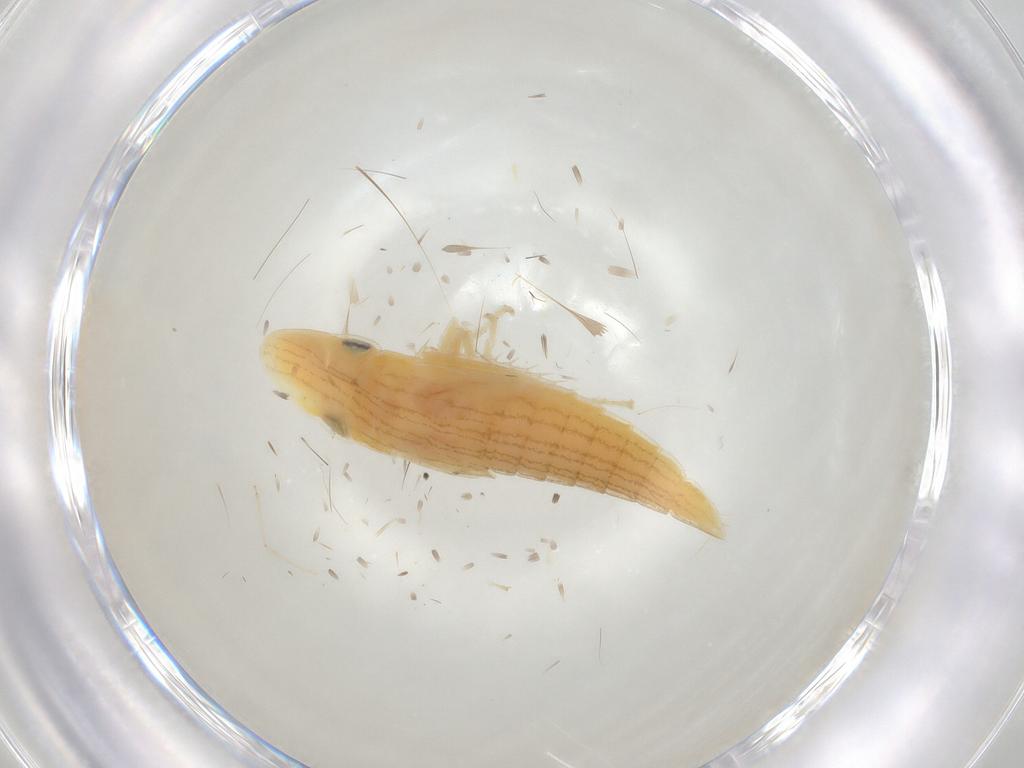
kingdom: Animalia
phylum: Arthropoda
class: Insecta
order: Hemiptera
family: Cicadellidae
